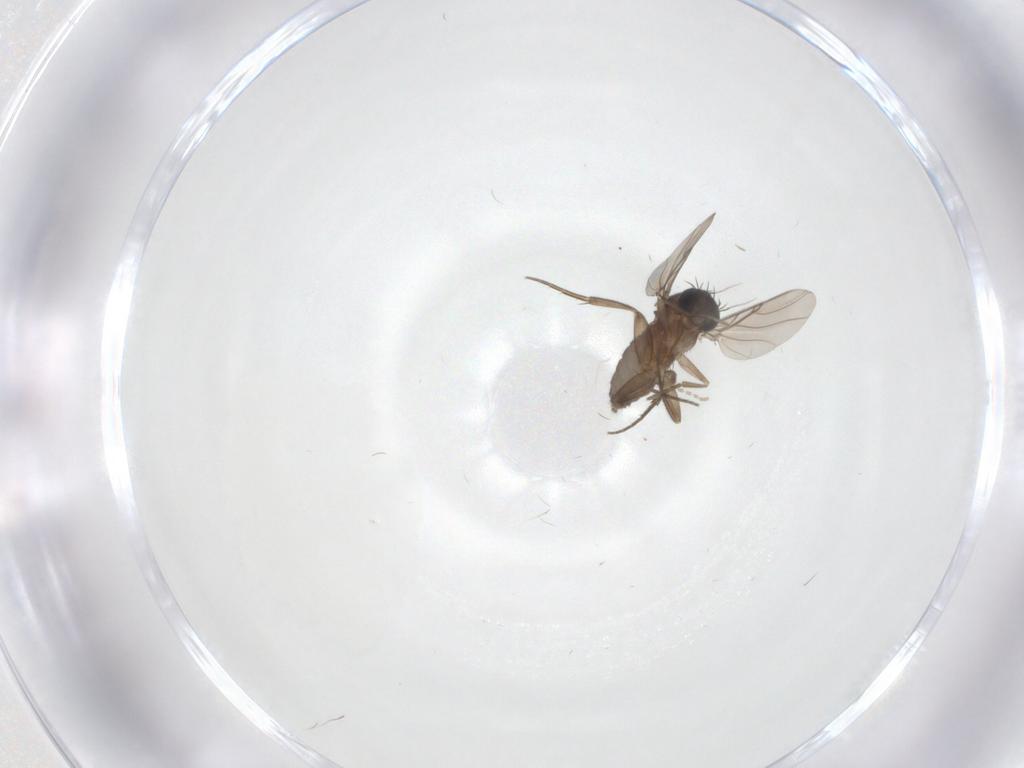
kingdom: Animalia
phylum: Arthropoda
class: Insecta
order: Diptera
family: Phoridae
